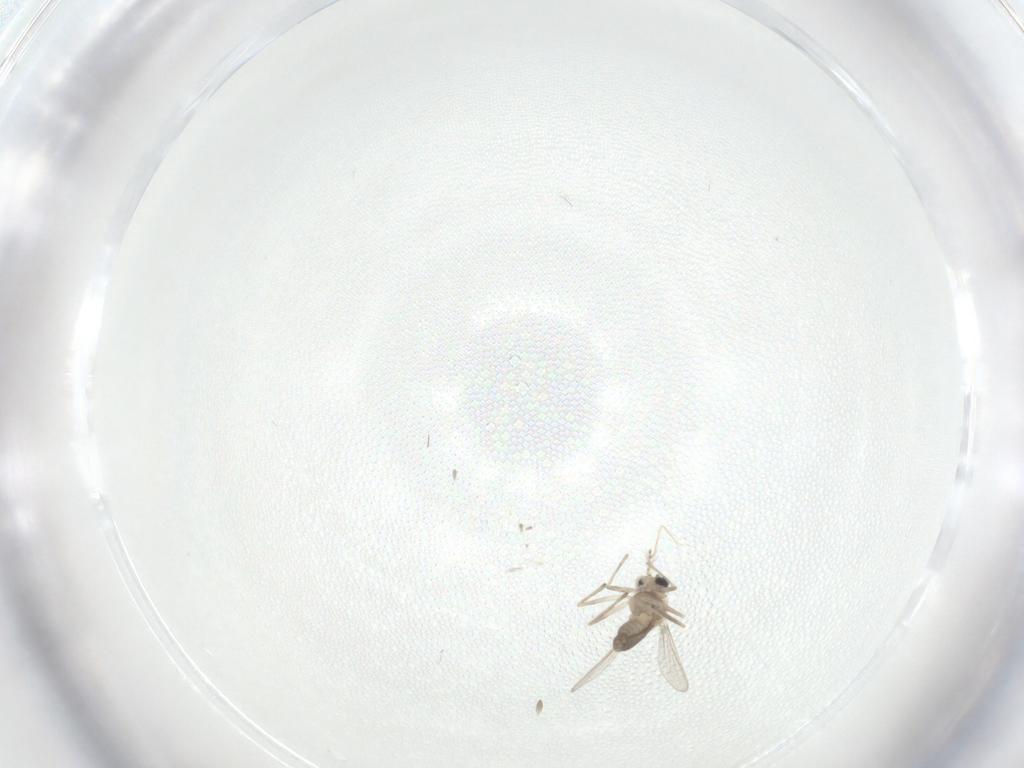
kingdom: Animalia
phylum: Arthropoda
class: Insecta
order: Diptera
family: Chironomidae
